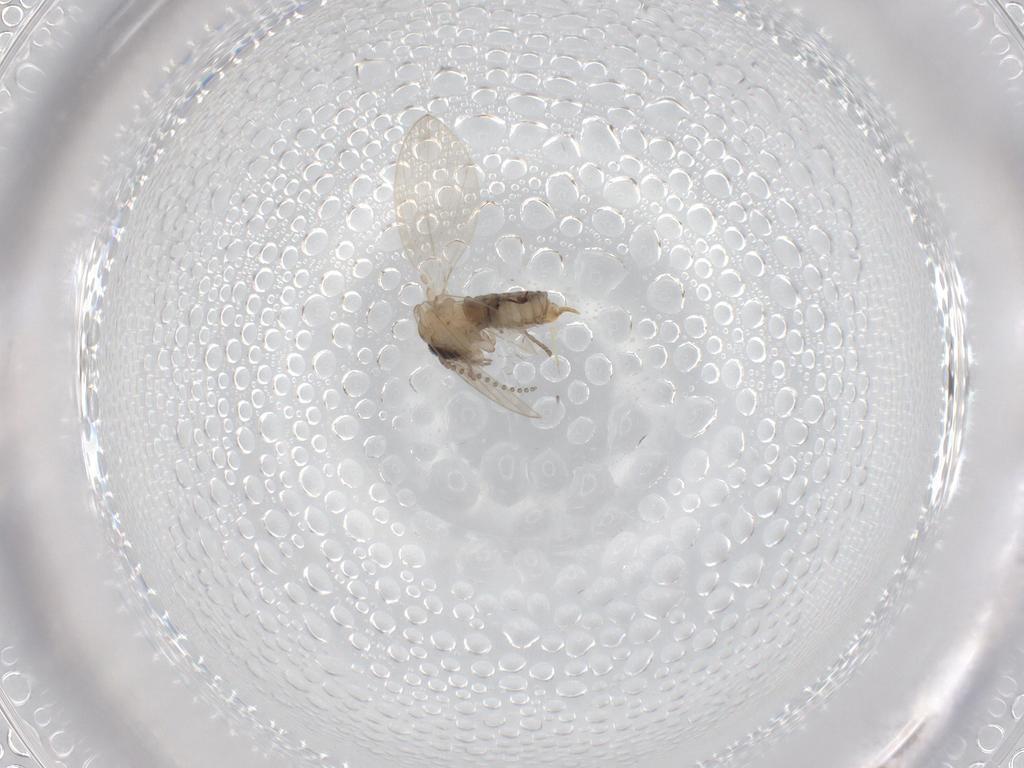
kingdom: Animalia
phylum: Arthropoda
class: Insecta
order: Diptera
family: Psychodidae
